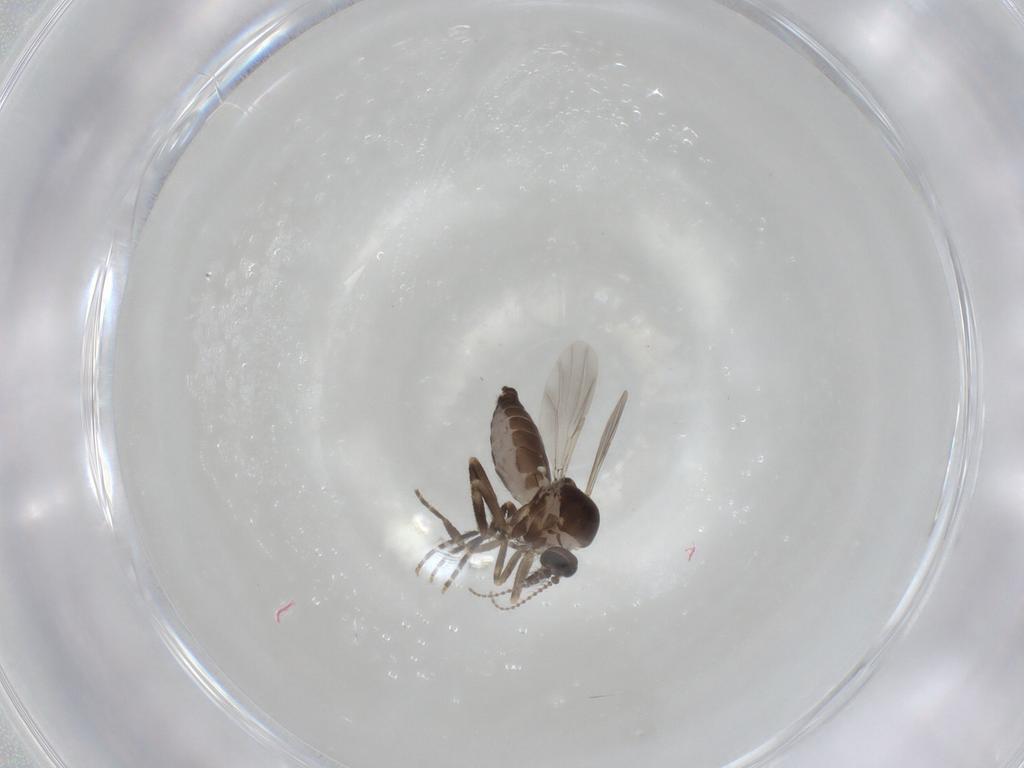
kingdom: Animalia
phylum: Arthropoda
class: Insecta
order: Diptera
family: Ceratopogonidae
